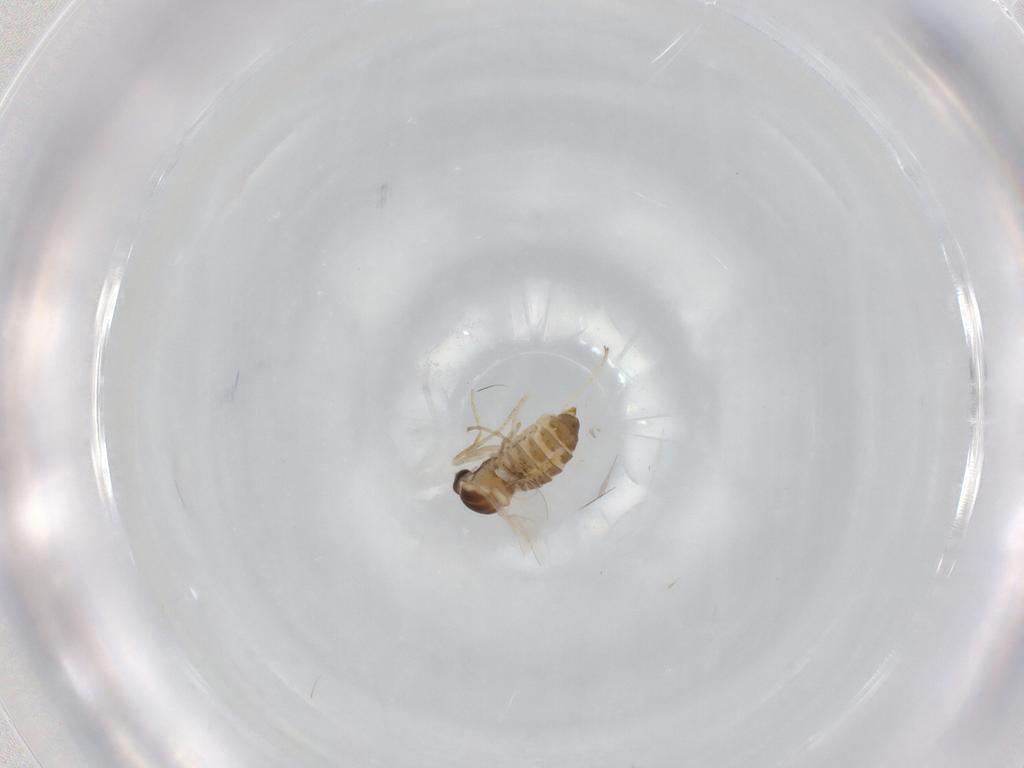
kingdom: Animalia
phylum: Arthropoda
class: Insecta
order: Diptera
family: Cecidomyiidae
